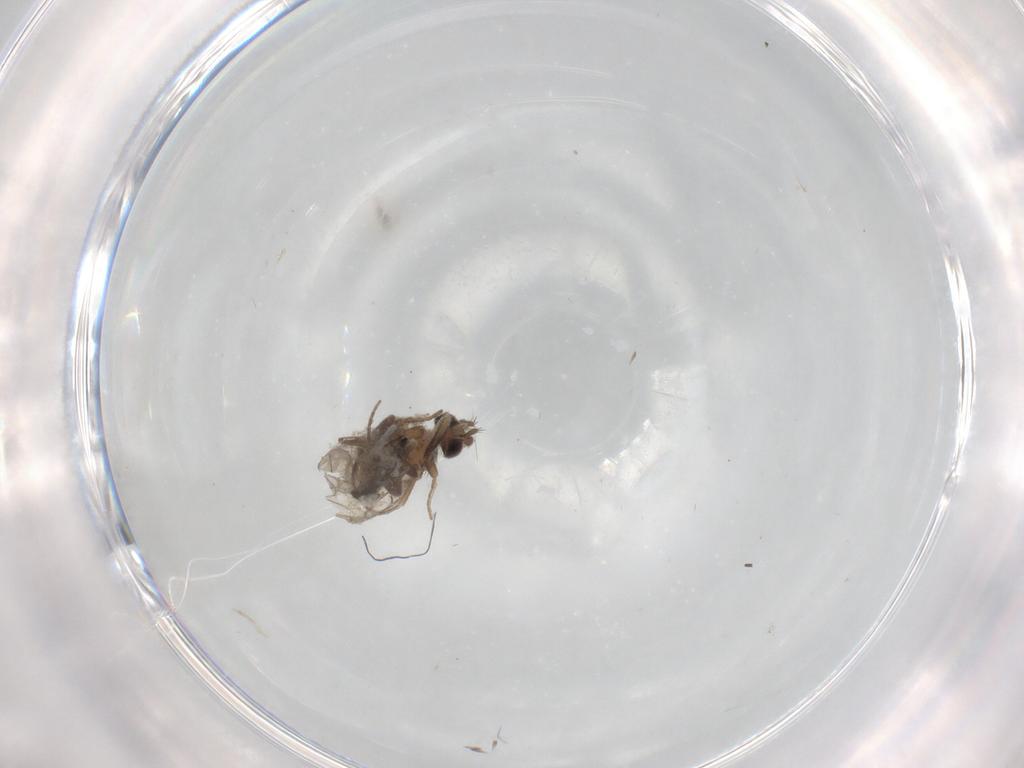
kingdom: Animalia
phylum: Arthropoda
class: Insecta
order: Diptera
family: Phoridae
